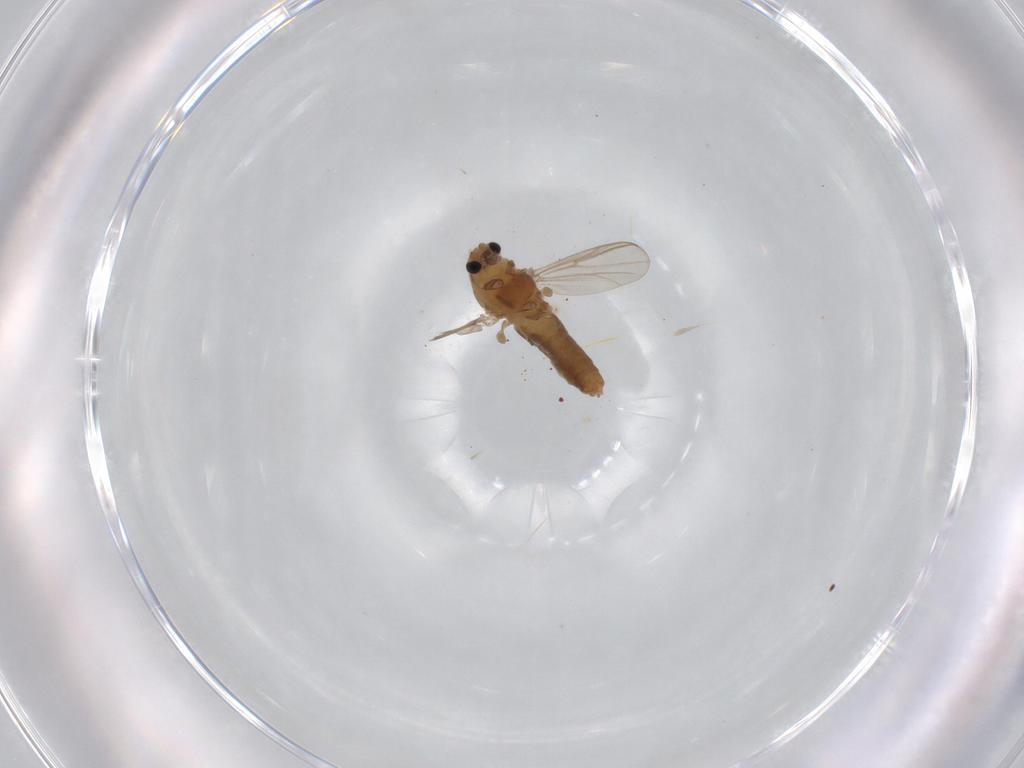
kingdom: Animalia
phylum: Arthropoda
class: Insecta
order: Diptera
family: Chironomidae
